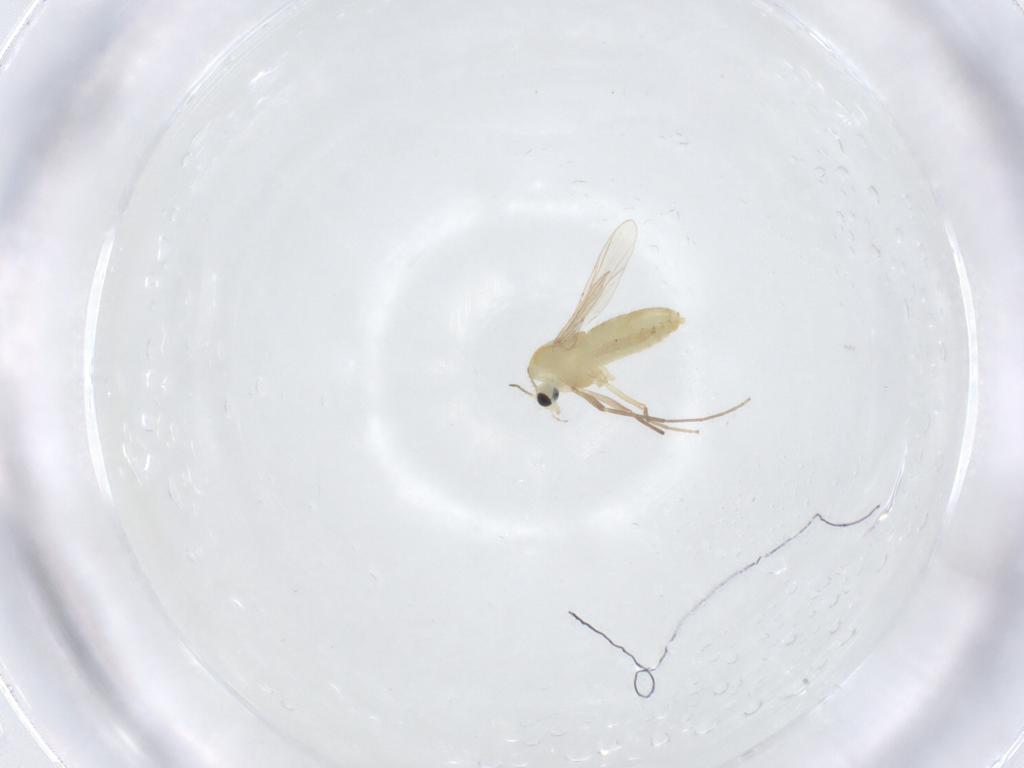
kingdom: Animalia
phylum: Arthropoda
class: Insecta
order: Diptera
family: Chironomidae
